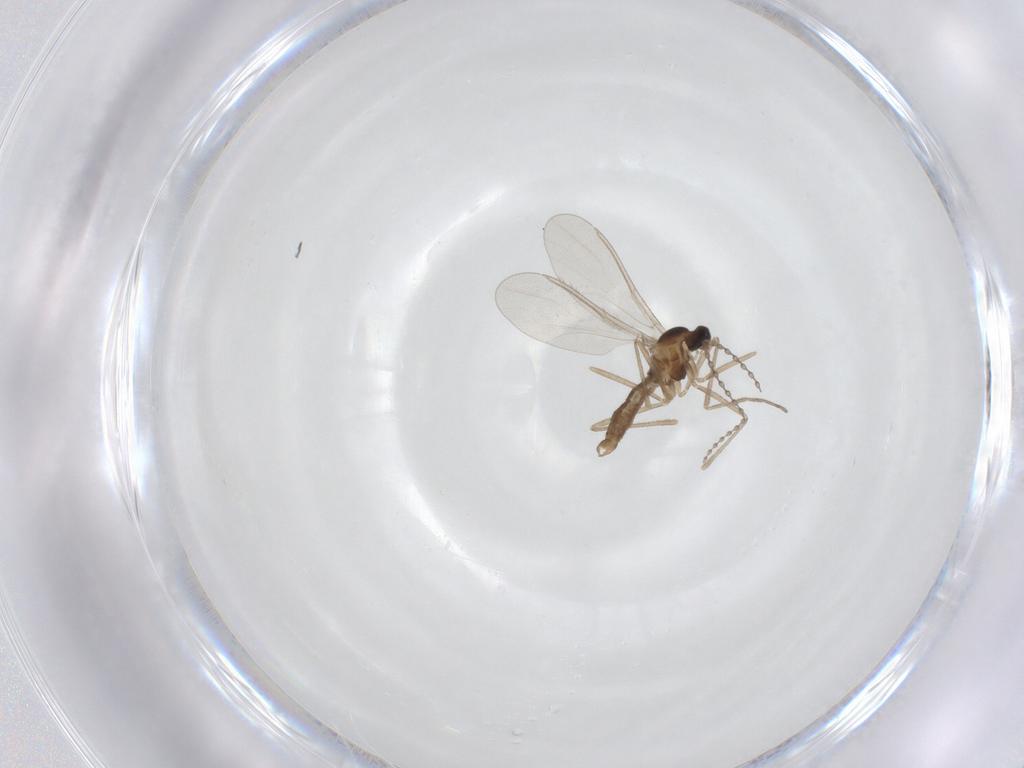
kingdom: Animalia
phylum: Arthropoda
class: Insecta
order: Diptera
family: Cecidomyiidae
